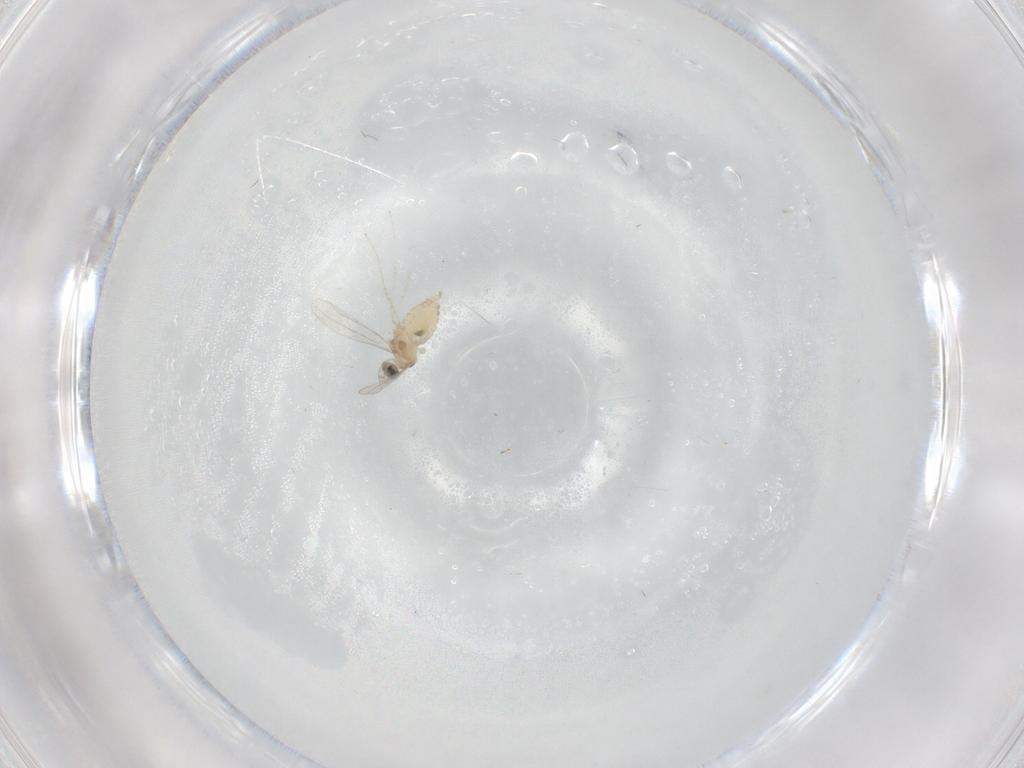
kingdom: Animalia
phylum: Arthropoda
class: Insecta
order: Diptera
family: Cecidomyiidae
